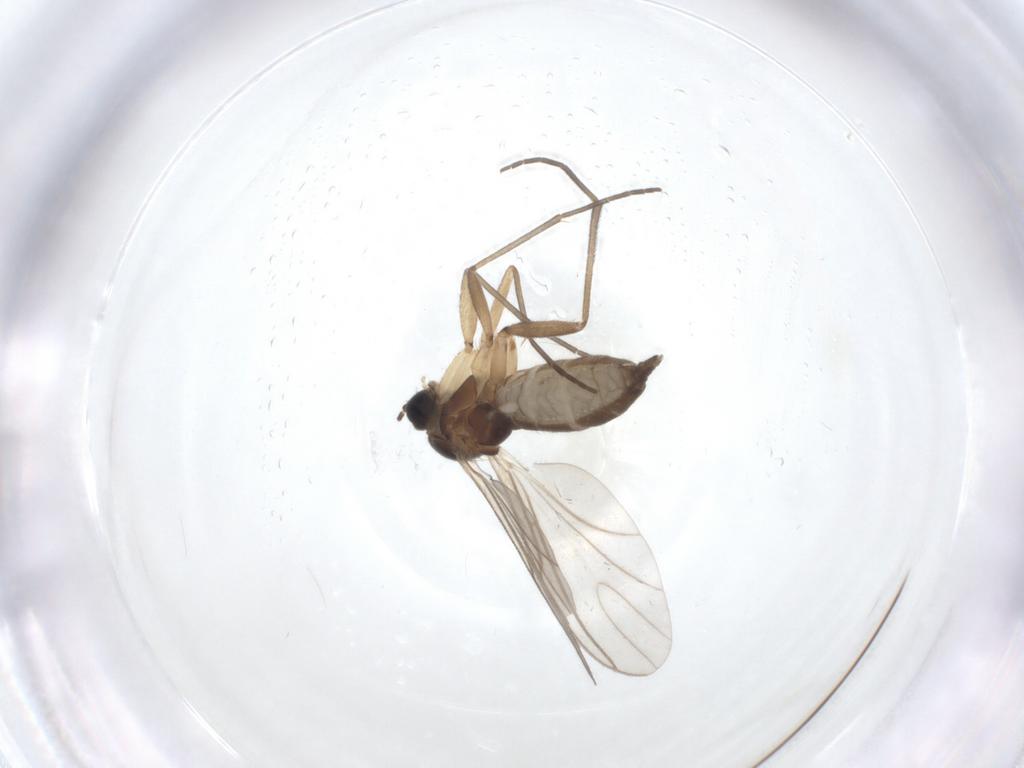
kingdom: Animalia
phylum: Arthropoda
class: Insecta
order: Diptera
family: Sciaridae
